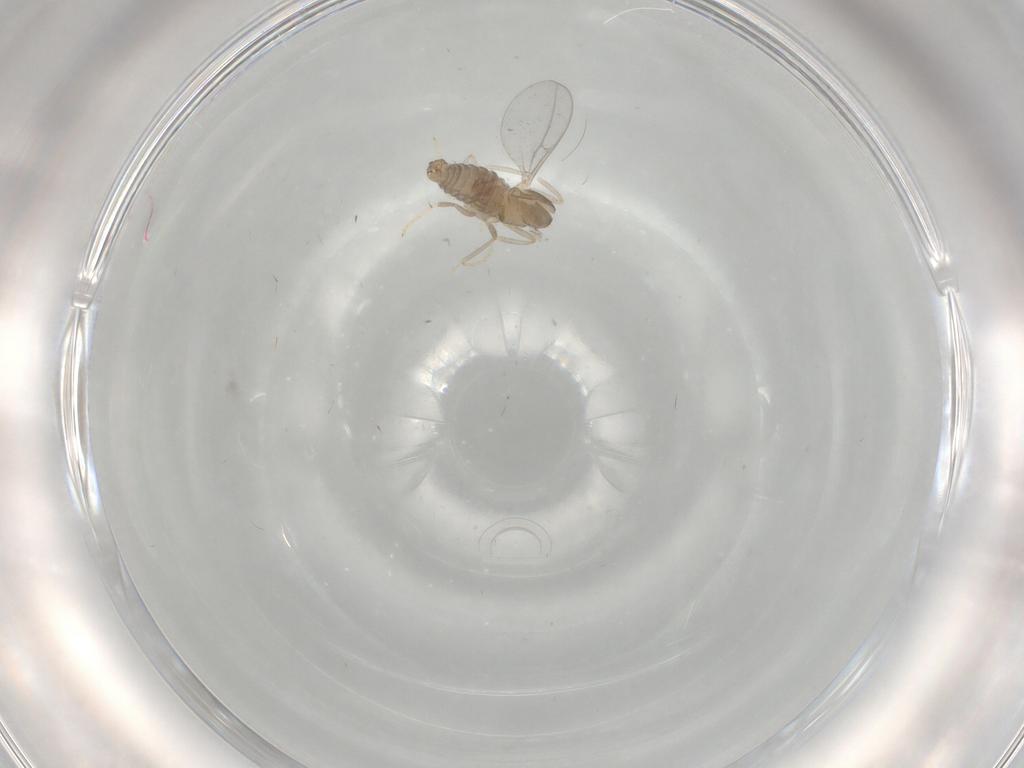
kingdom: Animalia
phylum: Arthropoda
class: Insecta
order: Diptera
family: Cecidomyiidae
